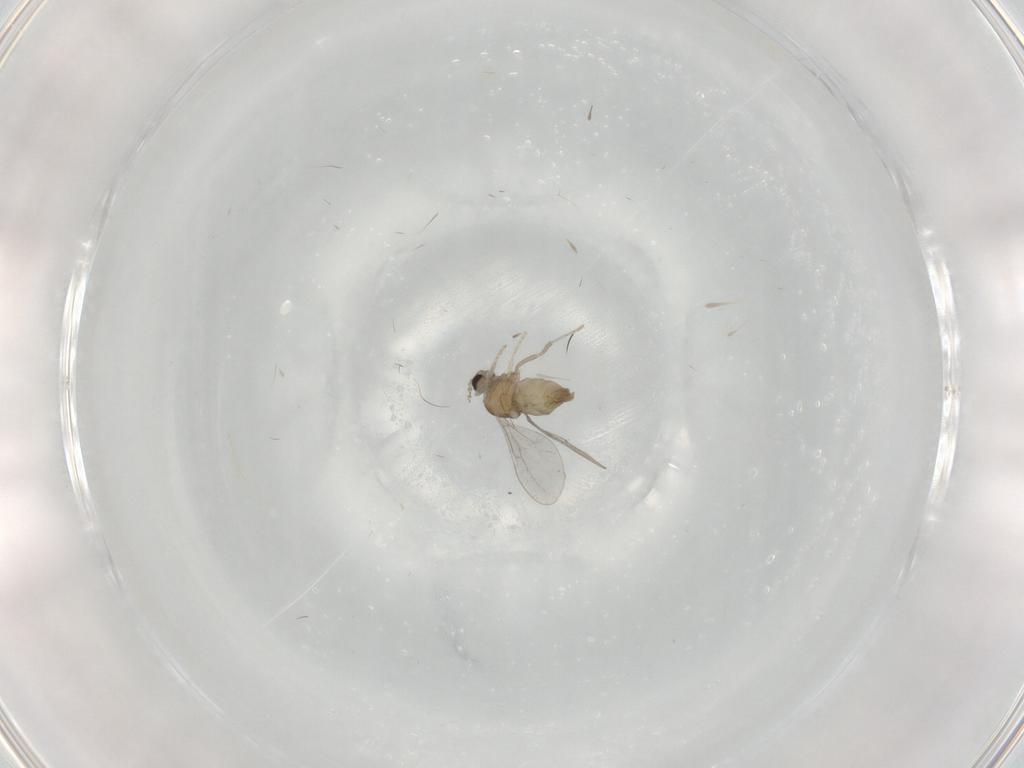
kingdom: Animalia
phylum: Arthropoda
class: Insecta
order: Diptera
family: Cecidomyiidae
